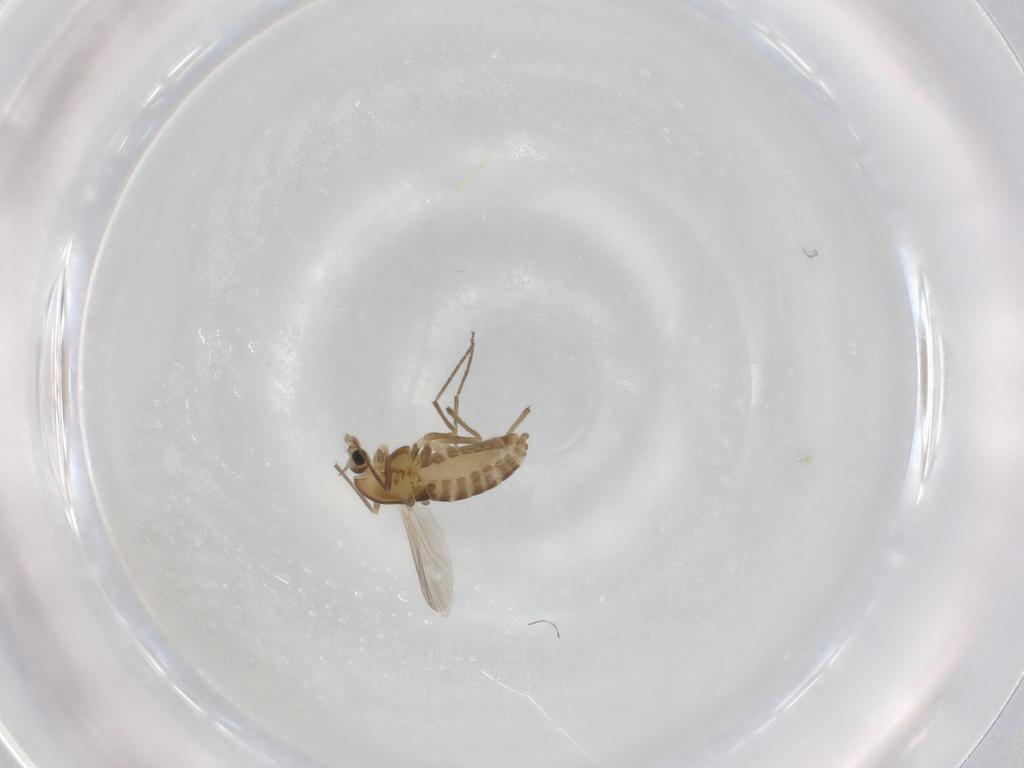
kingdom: Animalia
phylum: Arthropoda
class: Insecta
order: Diptera
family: Chironomidae
